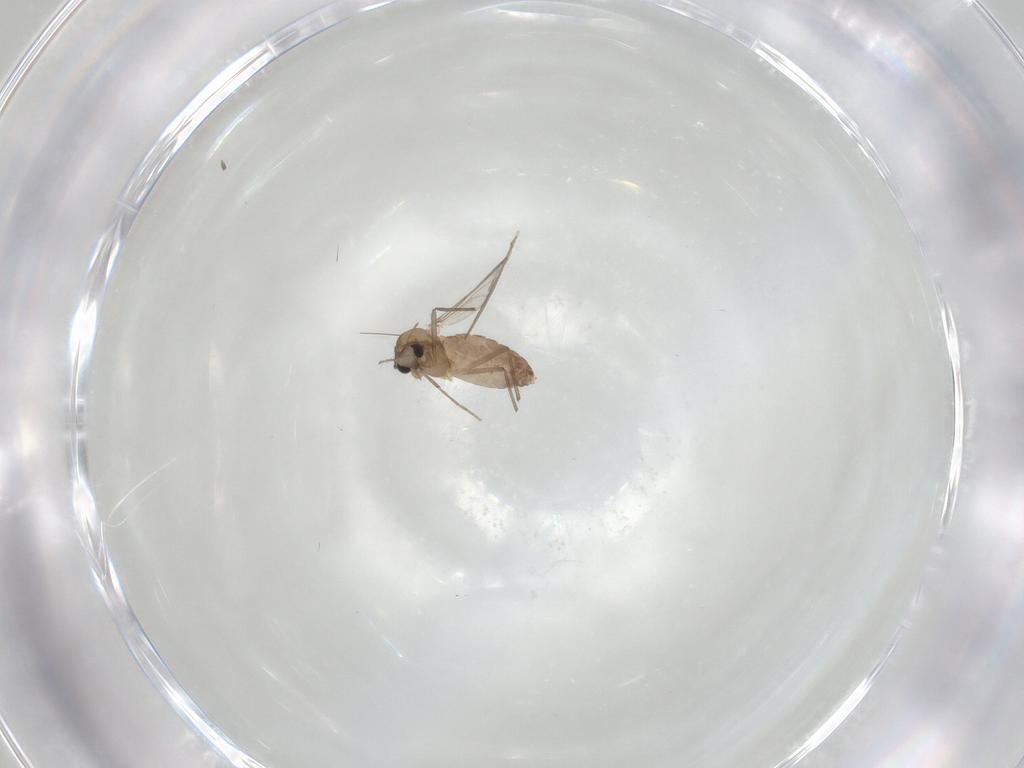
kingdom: Animalia
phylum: Arthropoda
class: Insecta
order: Diptera
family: Chironomidae
